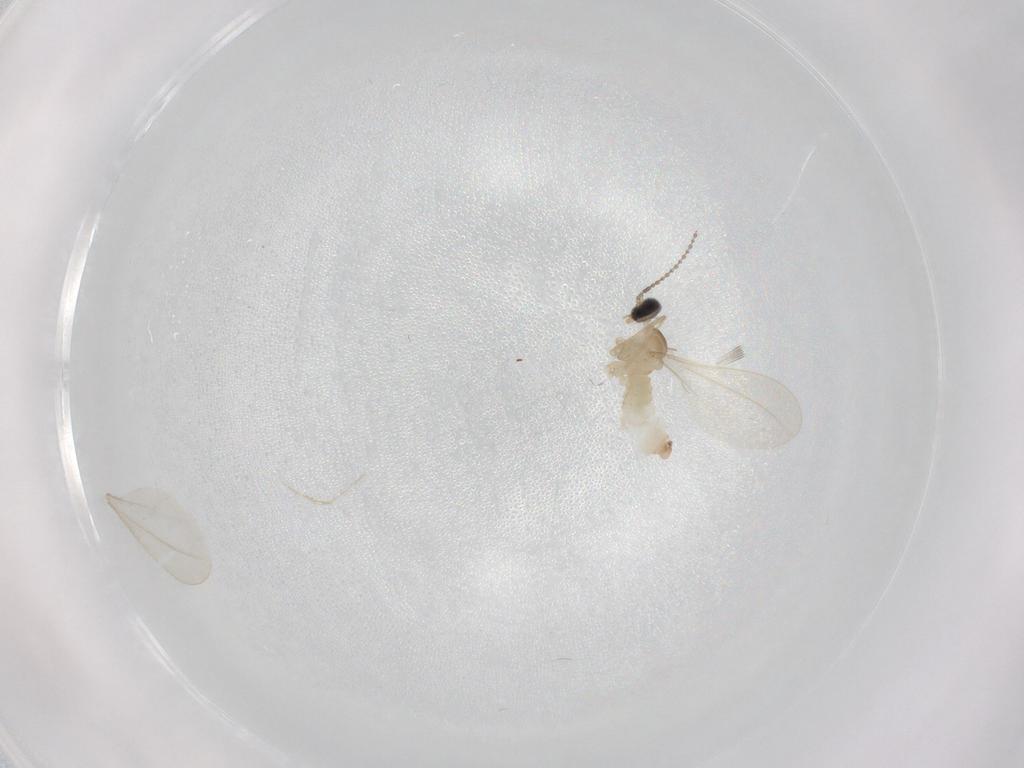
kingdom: Animalia
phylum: Arthropoda
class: Insecta
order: Diptera
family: Cecidomyiidae
